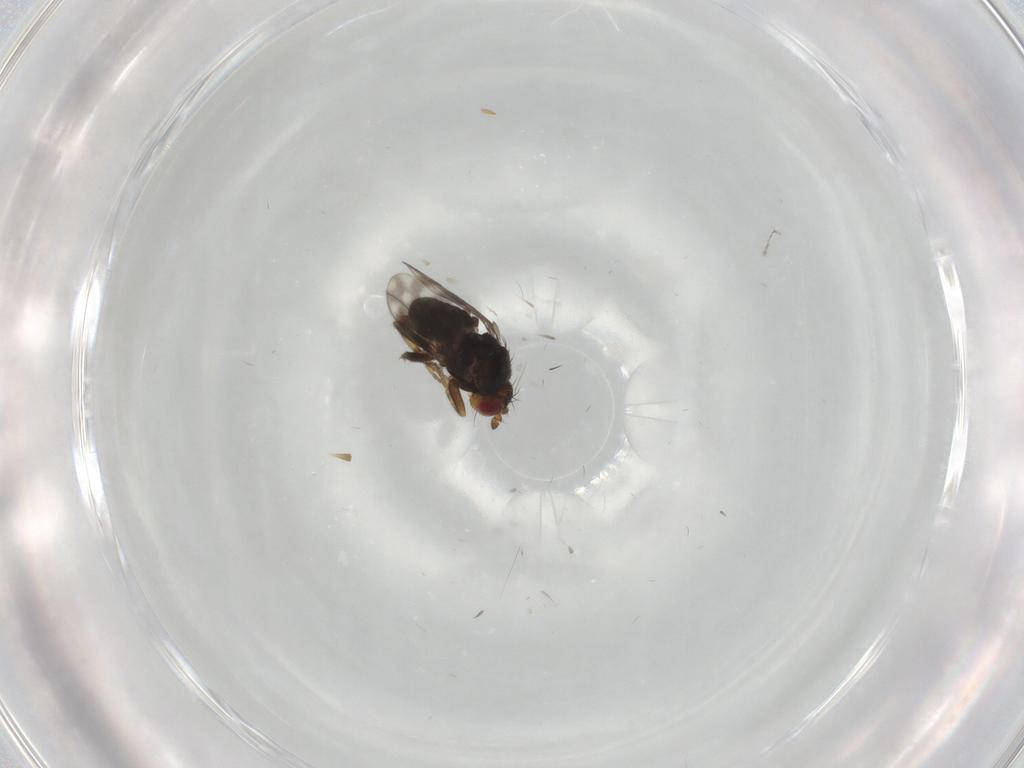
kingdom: Animalia
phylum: Arthropoda
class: Insecta
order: Diptera
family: Sphaeroceridae
